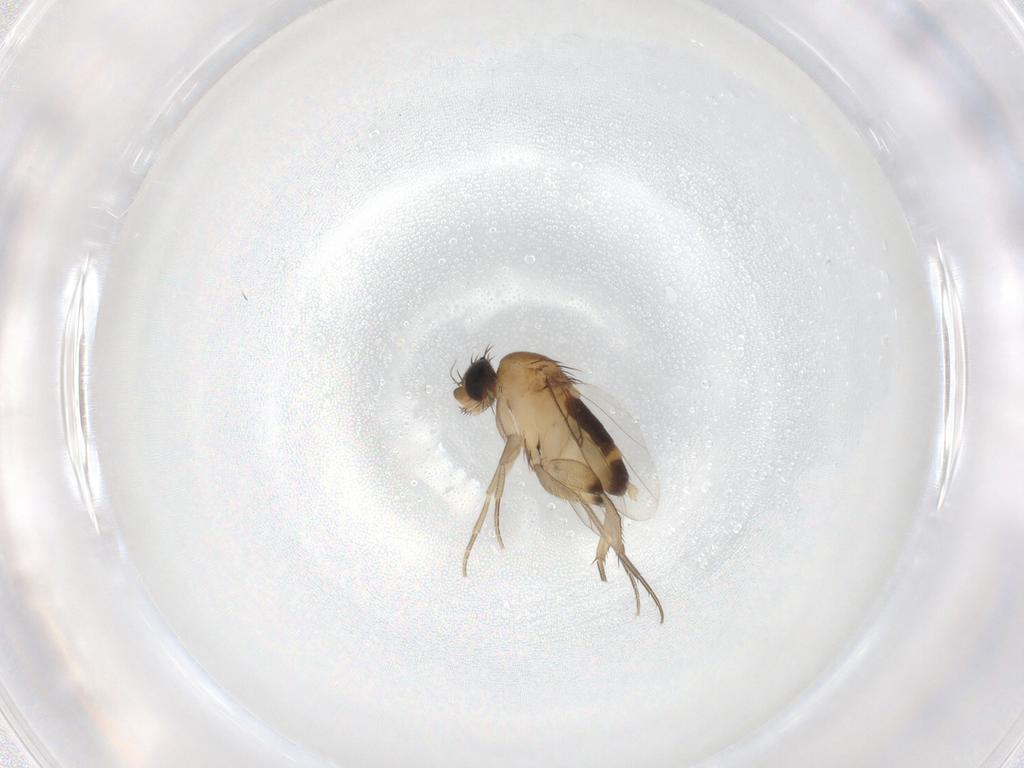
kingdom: Animalia
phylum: Arthropoda
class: Insecta
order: Diptera
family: Phoridae
